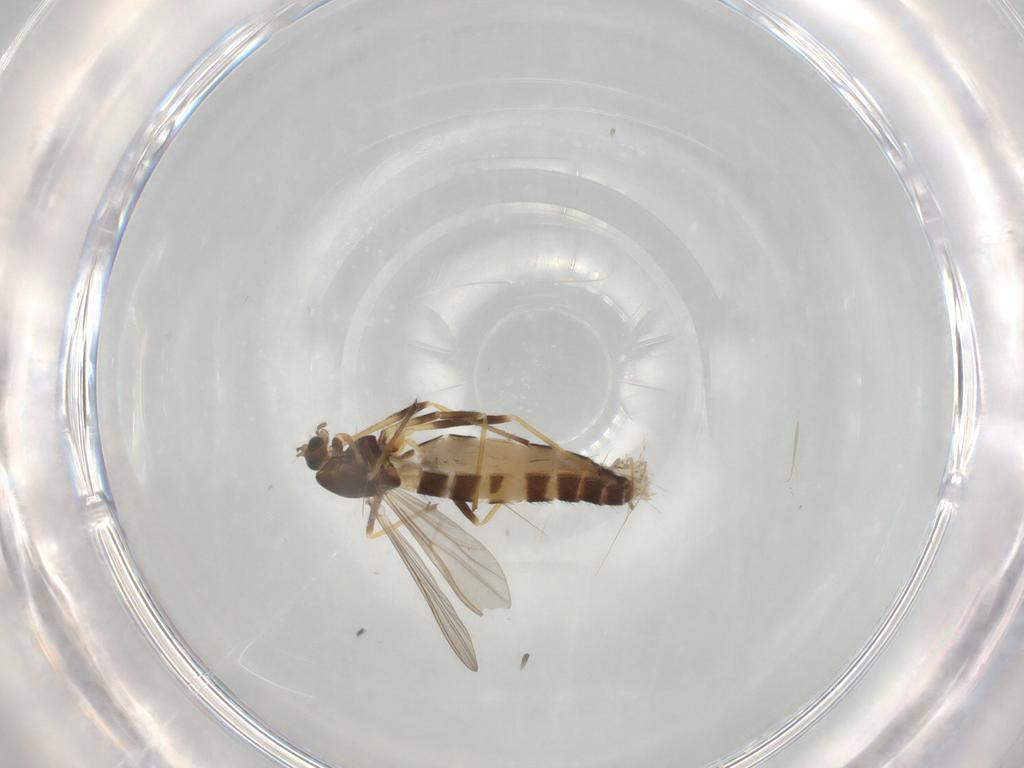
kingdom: Animalia
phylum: Arthropoda
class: Insecta
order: Diptera
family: Chironomidae
